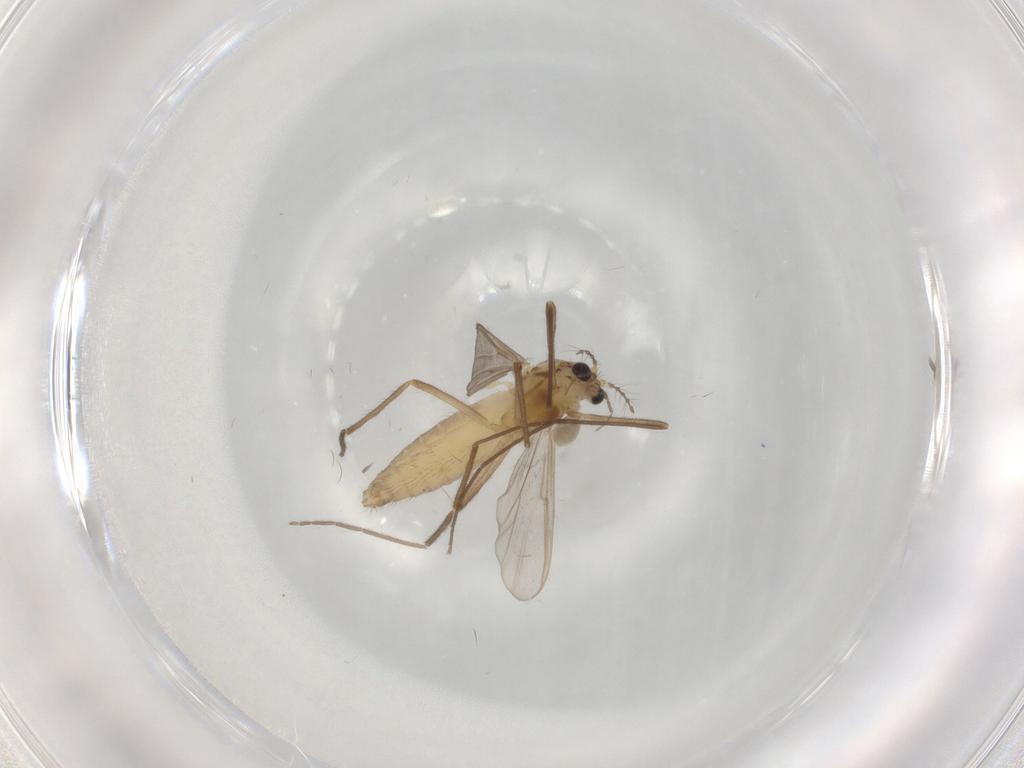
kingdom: Animalia
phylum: Arthropoda
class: Insecta
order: Diptera
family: Chironomidae
